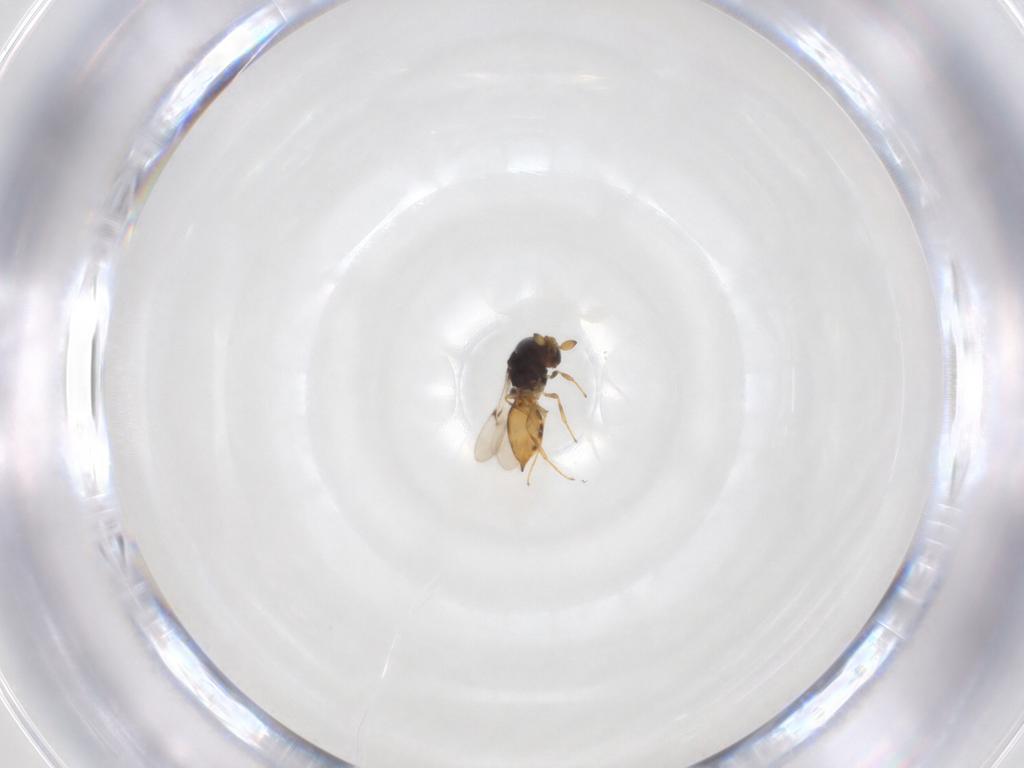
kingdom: Animalia
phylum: Arthropoda
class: Insecta
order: Hymenoptera
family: Scelionidae
